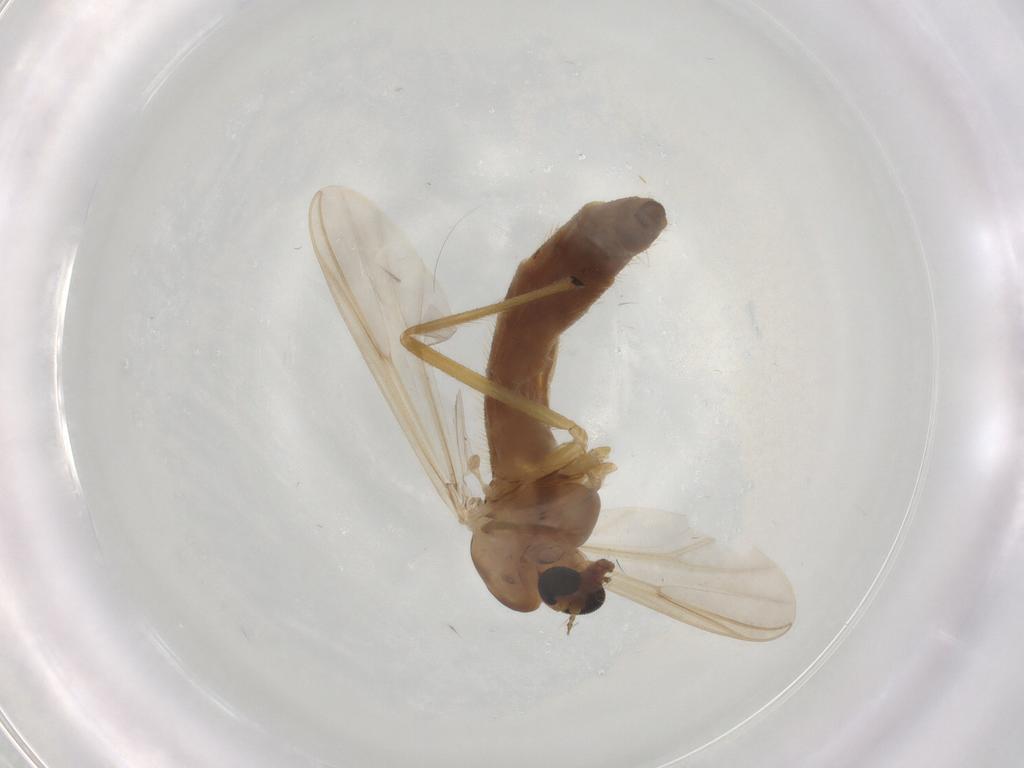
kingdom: Animalia
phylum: Arthropoda
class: Insecta
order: Diptera
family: Chironomidae
